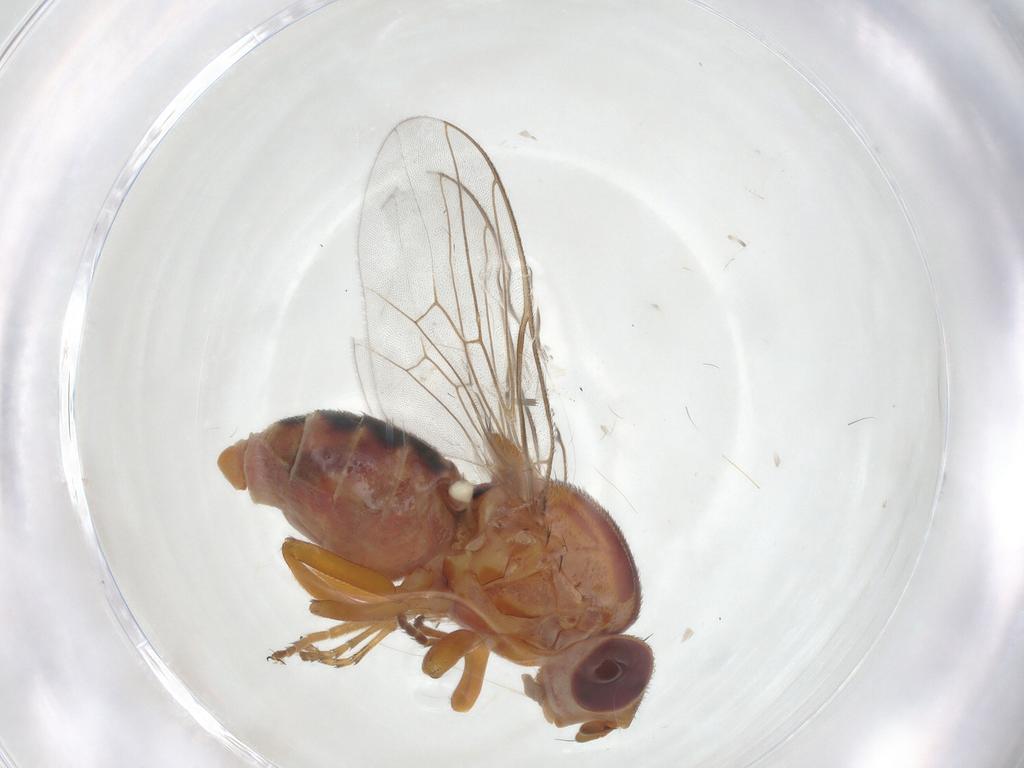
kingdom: Animalia
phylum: Arthropoda
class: Insecta
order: Diptera
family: Chloropidae
